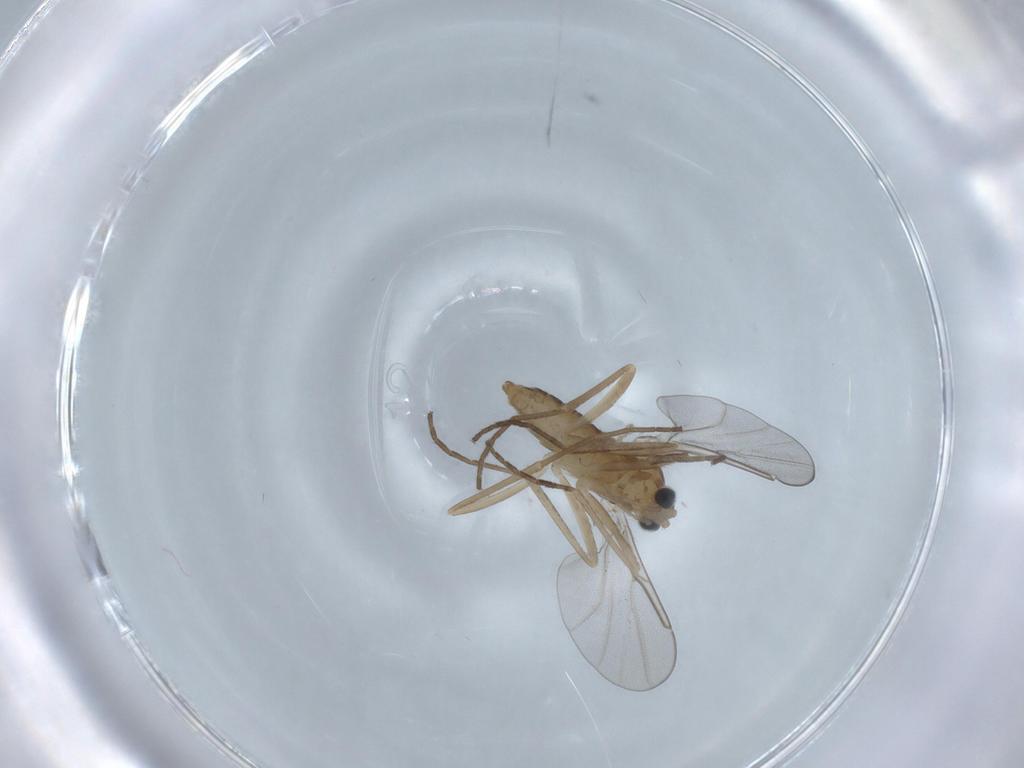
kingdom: Animalia
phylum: Arthropoda
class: Insecta
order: Diptera
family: Cecidomyiidae
